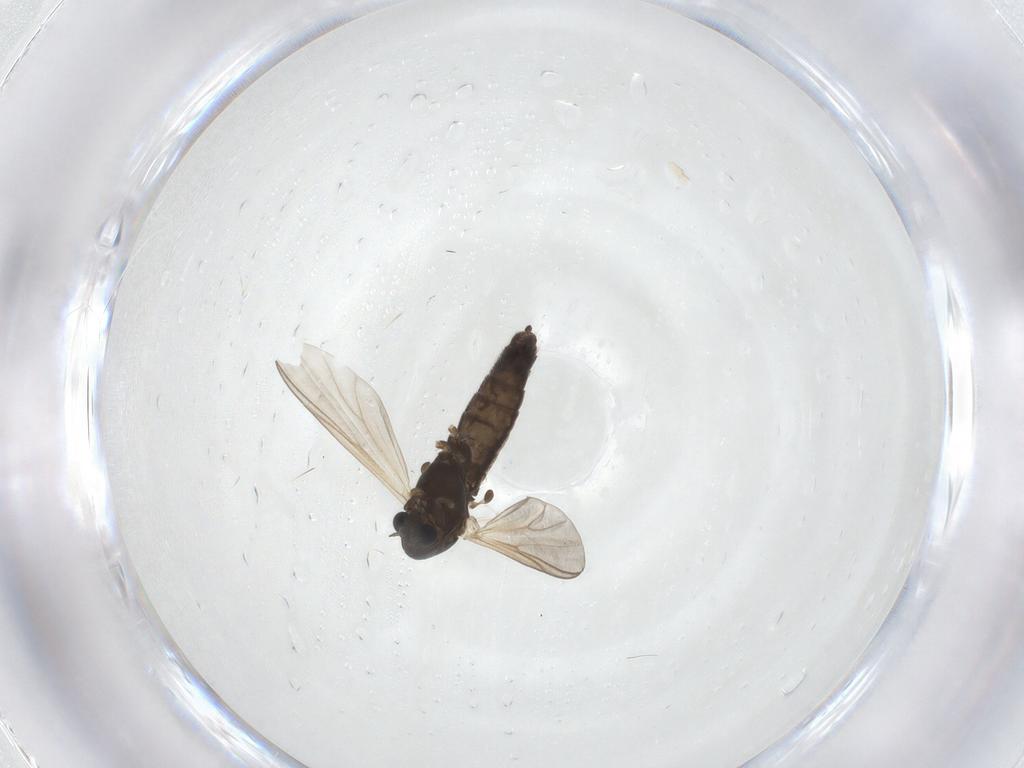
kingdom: Animalia
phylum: Arthropoda
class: Insecta
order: Diptera
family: Chironomidae
